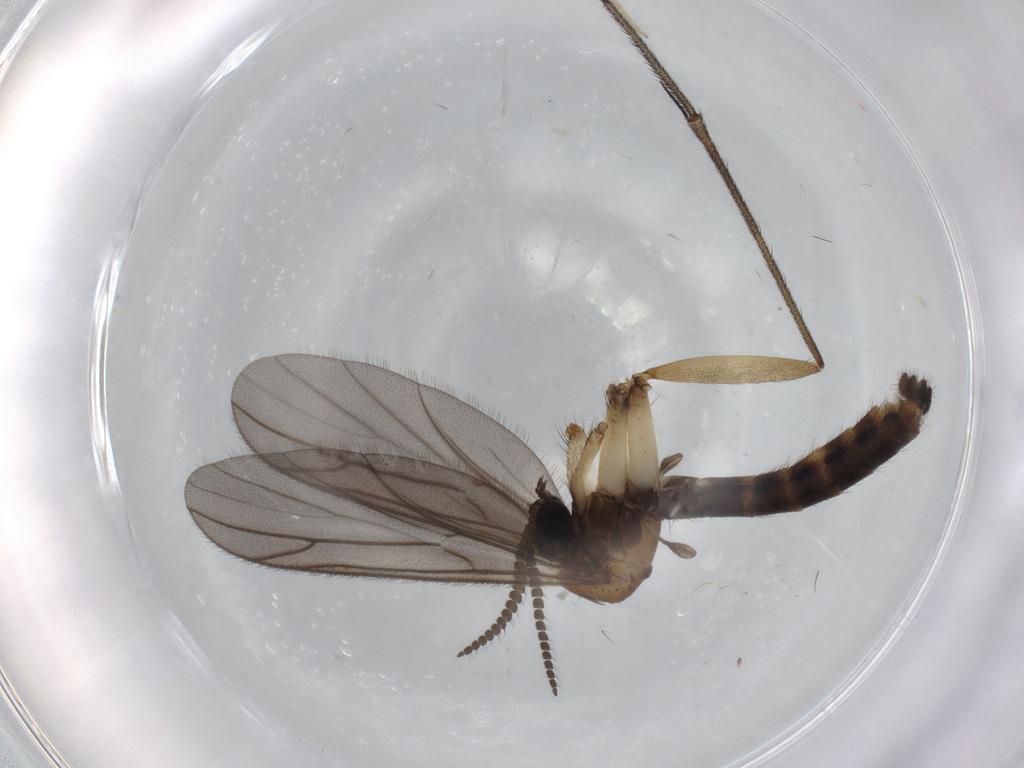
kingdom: Animalia
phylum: Arthropoda
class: Insecta
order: Diptera
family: Cecidomyiidae
